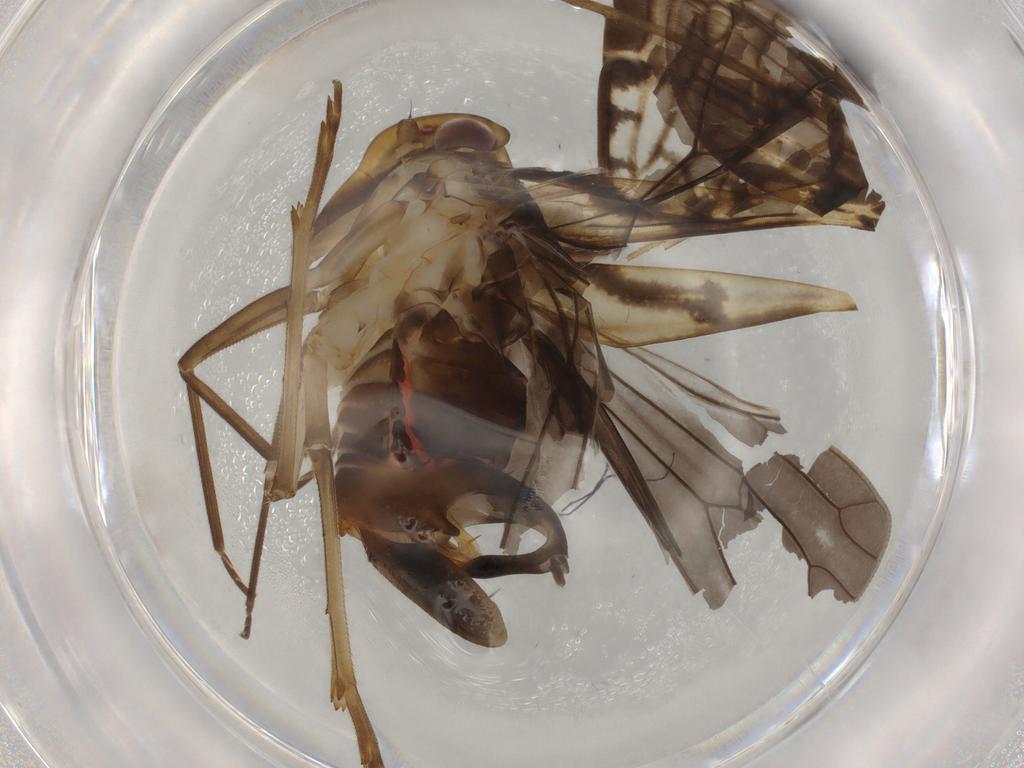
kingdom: Animalia
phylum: Arthropoda
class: Insecta
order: Hemiptera
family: Cixiidae
